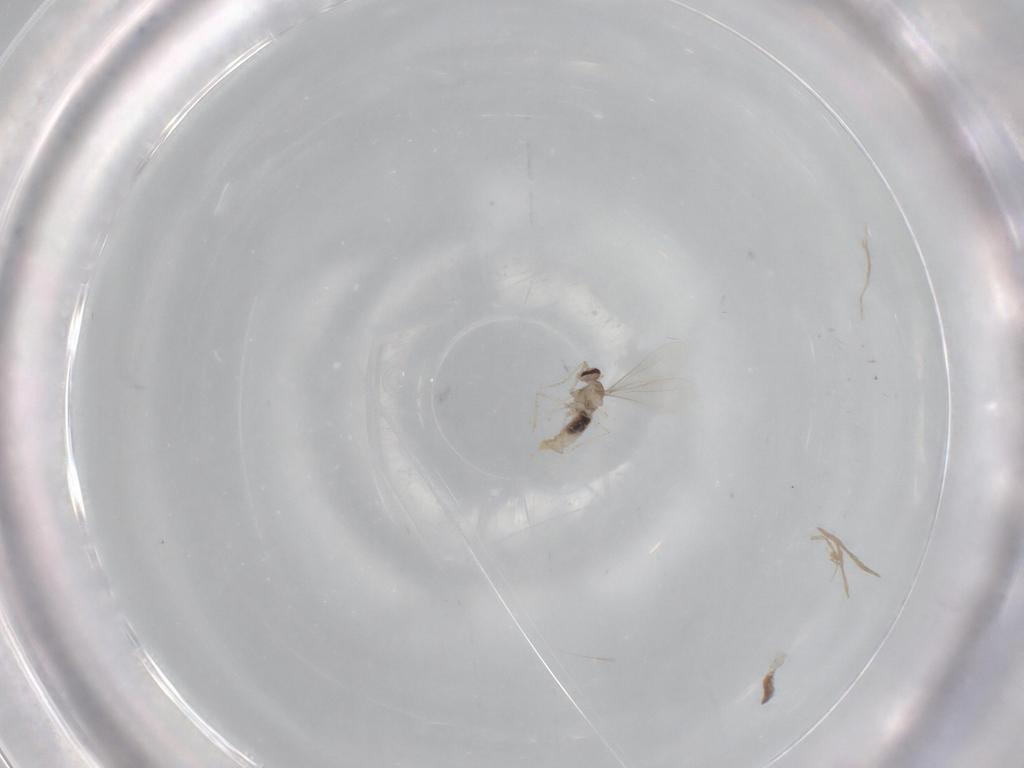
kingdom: Animalia
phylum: Arthropoda
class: Insecta
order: Diptera
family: Cecidomyiidae
